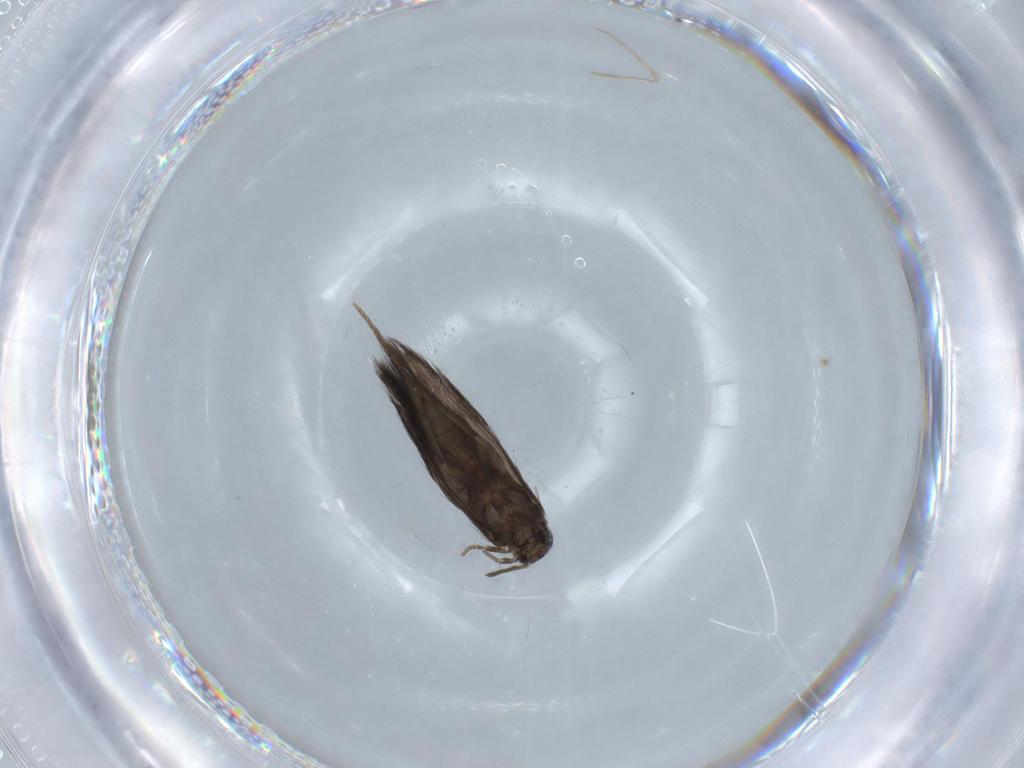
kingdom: Animalia
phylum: Arthropoda
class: Insecta
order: Trichoptera
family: Hydroptilidae
